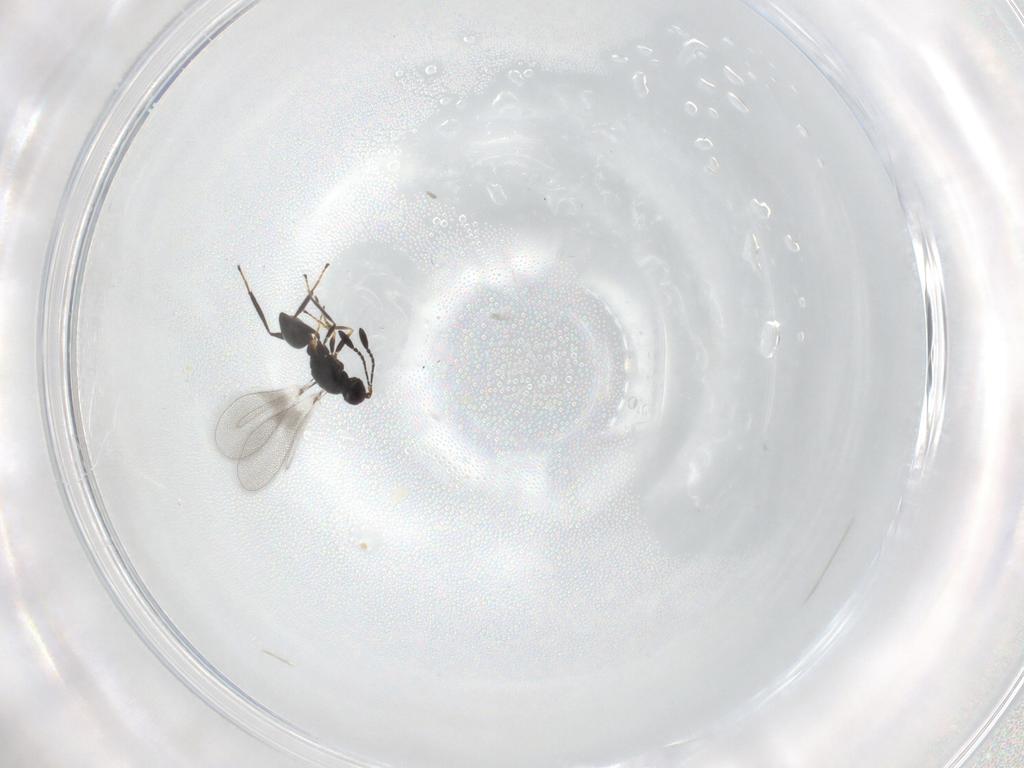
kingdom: Animalia
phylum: Arthropoda
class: Insecta
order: Hymenoptera
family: Mymaridae
